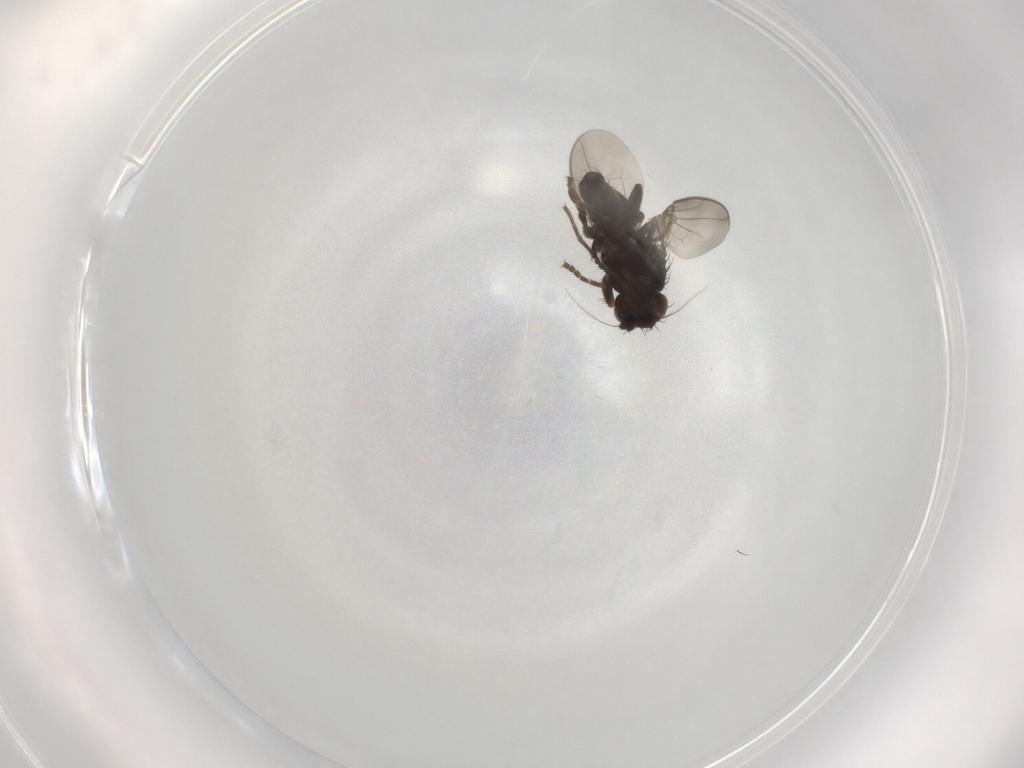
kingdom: Animalia
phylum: Arthropoda
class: Insecta
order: Diptera
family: Sphaeroceridae
